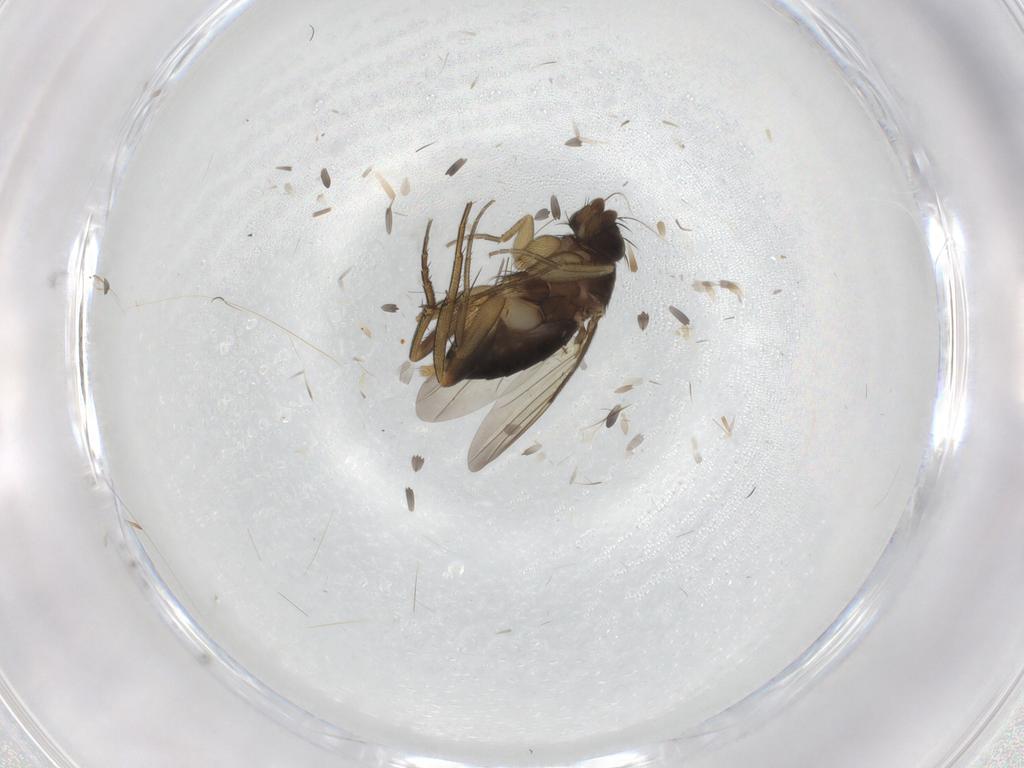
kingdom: Animalia
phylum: Arthropoda
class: Insecta
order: Diptera
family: Phoridae
